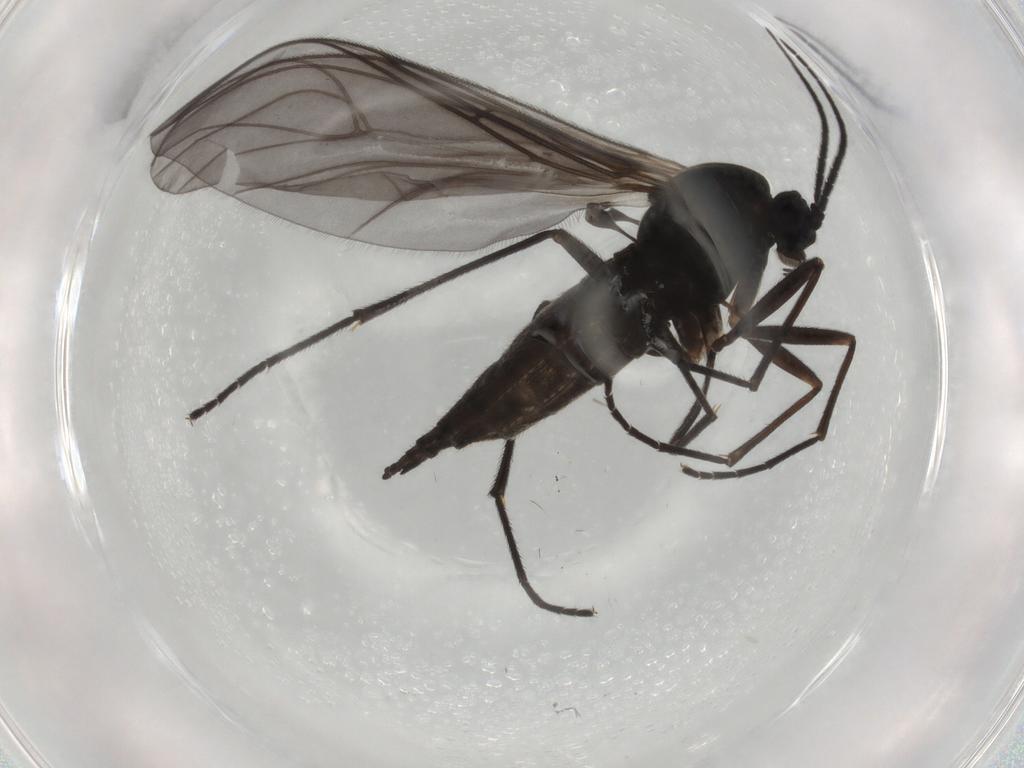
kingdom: Animalia
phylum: Arthropoda
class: Insecta
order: Diptera
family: Sciaridae
